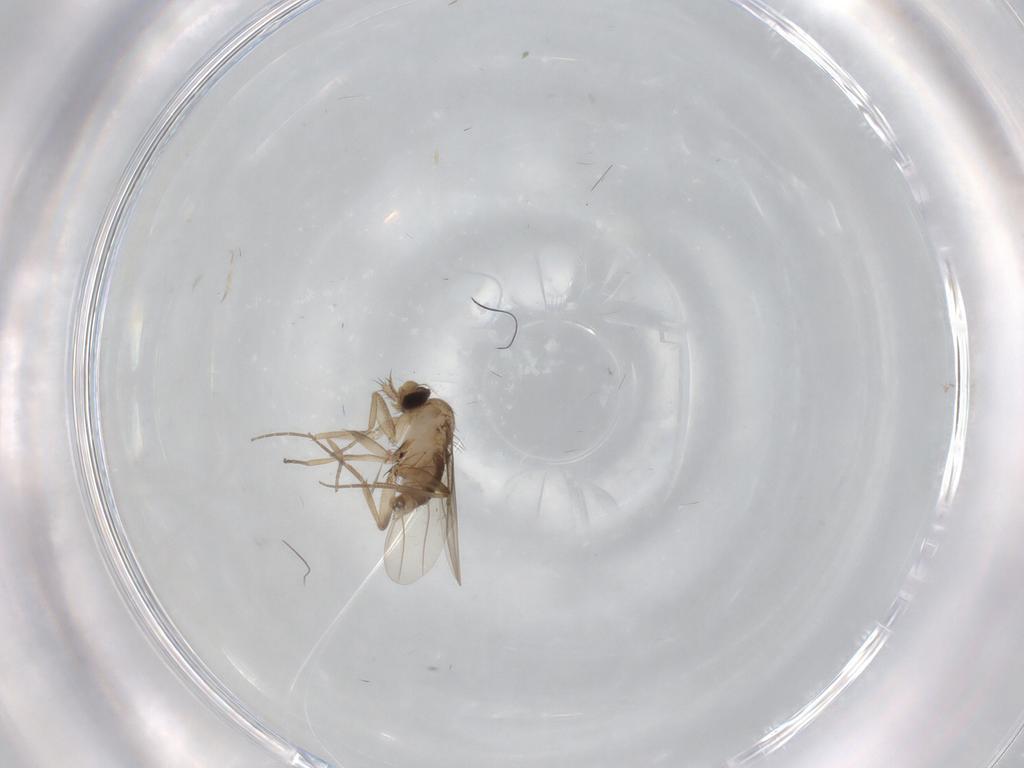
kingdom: Animalia
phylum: Arthropoda
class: Insecta
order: Diptera
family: Phoridae
